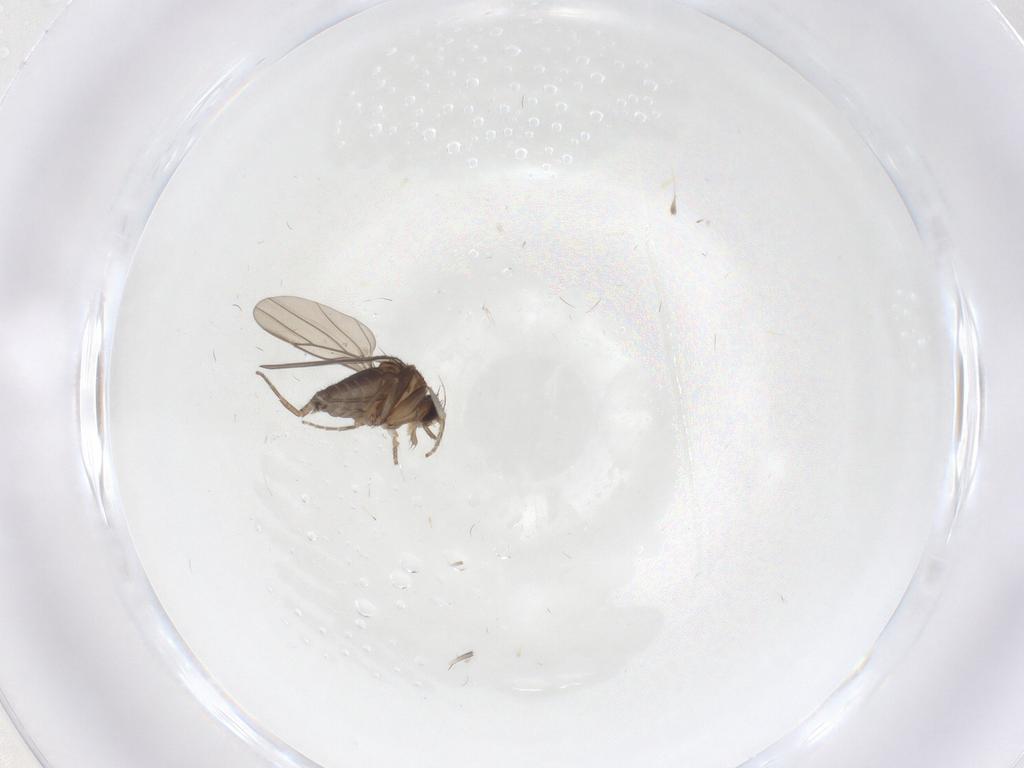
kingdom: Animalia
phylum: Arthropoda
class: Insecta
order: Diptera
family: Phoridae
